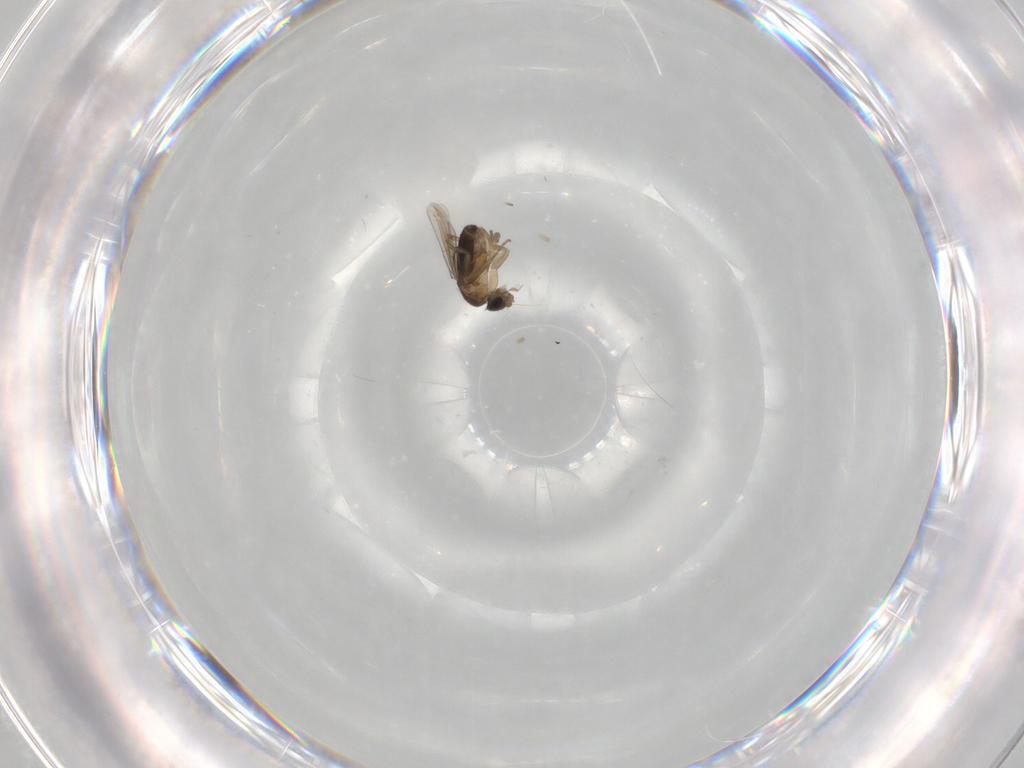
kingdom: Animalia
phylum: Arthropoda
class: Insecta
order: Diptera
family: Phoridae
